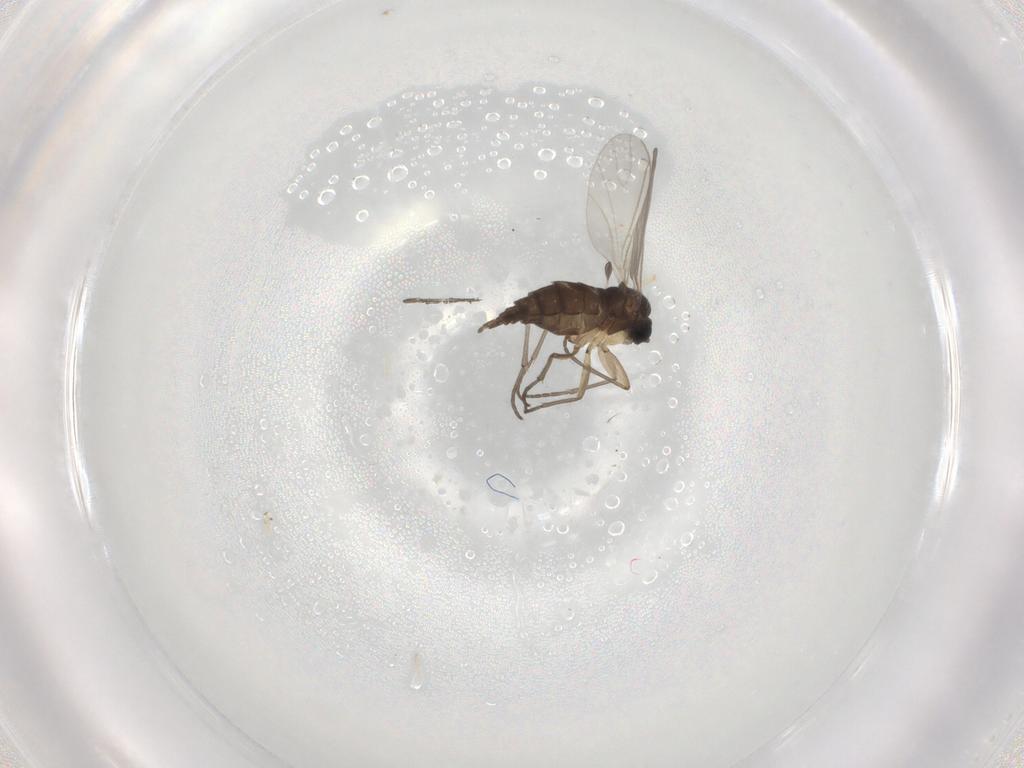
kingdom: Animalia
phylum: Arthropoda
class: Insecta
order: Diptera
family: Sciaridae
